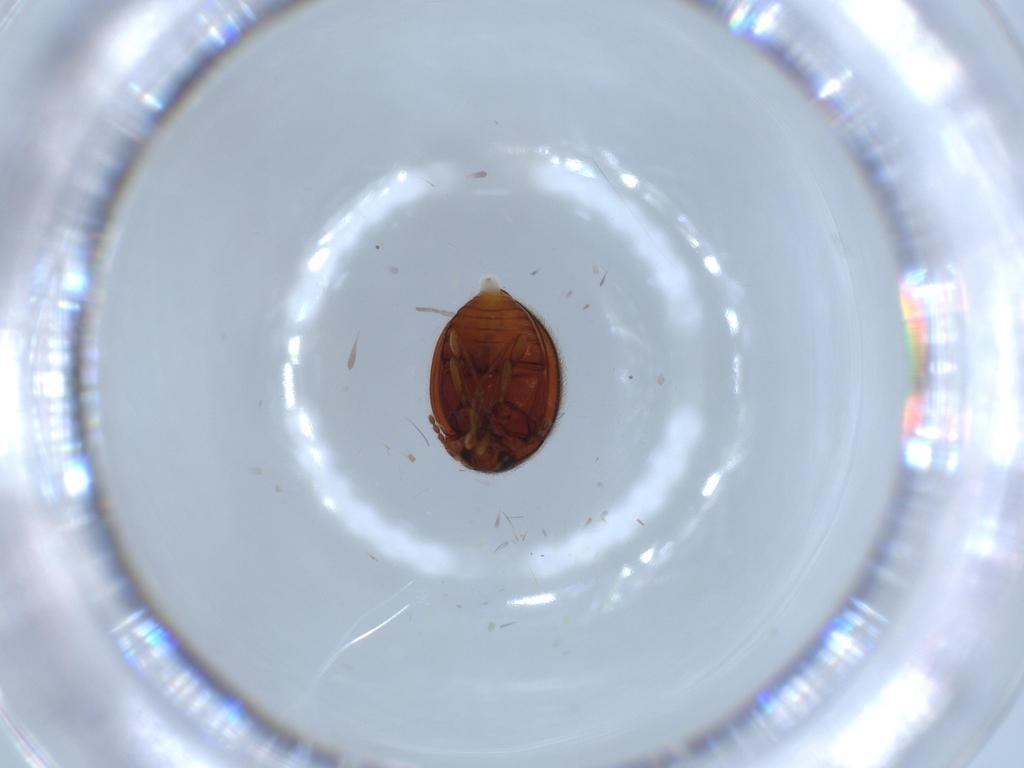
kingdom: Animalia
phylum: Arthropoda
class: Insecta
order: Coleoptera
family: Anamorphidae
